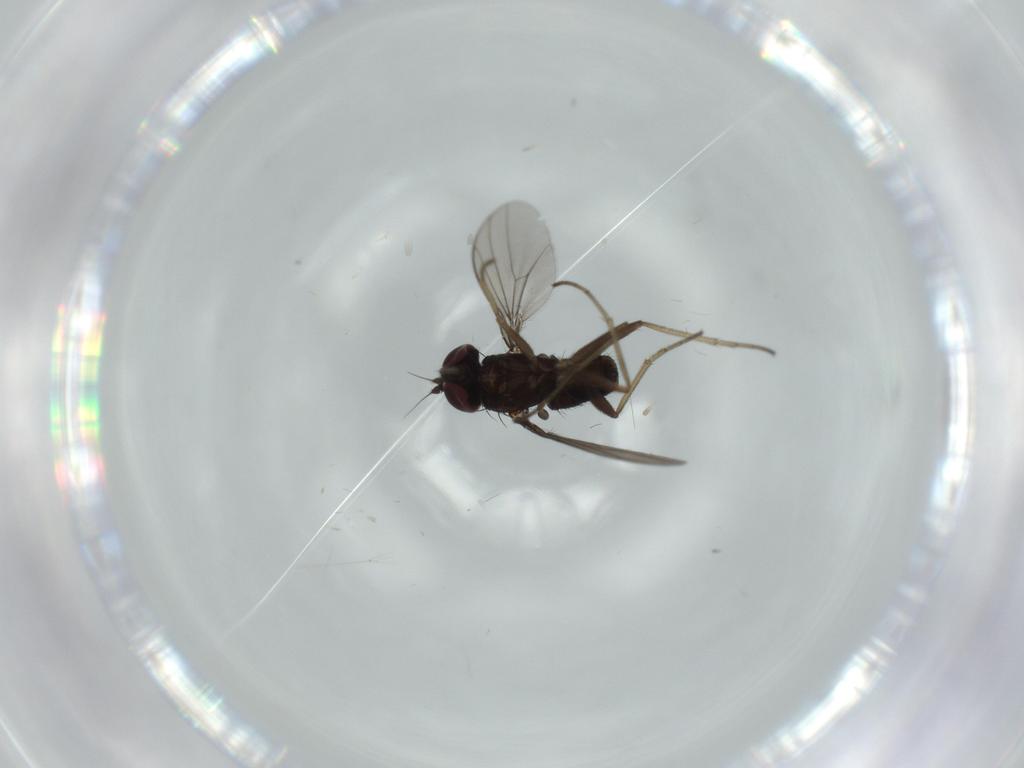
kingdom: Animalia
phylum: Arthropoda
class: Insecta
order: Diptera
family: Dolichopodidae
